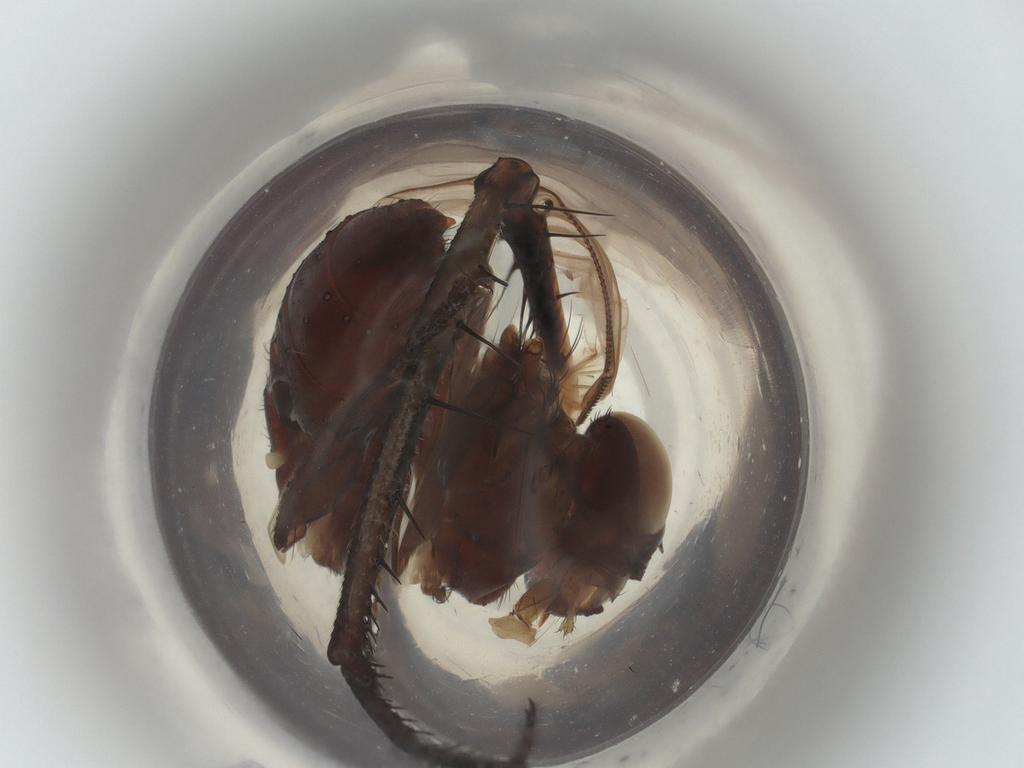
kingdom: Animalia
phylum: Arthropoda
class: Insecta
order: Diptera
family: Tachinidae
